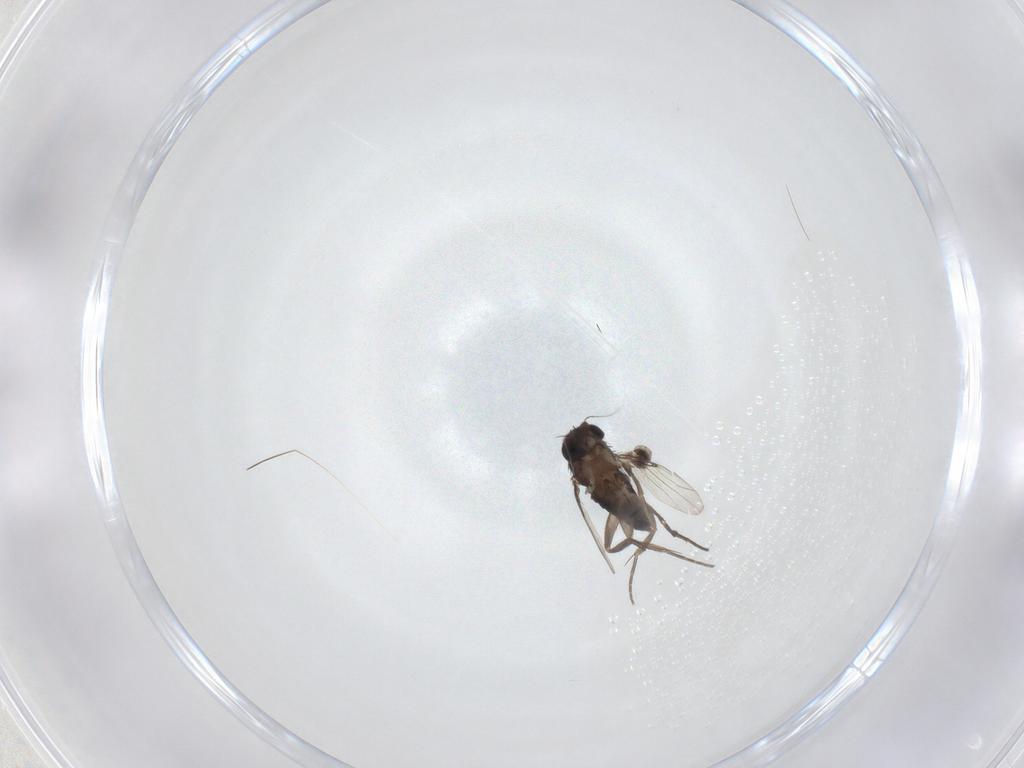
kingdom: Animalia
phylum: Arthropoda
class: Insecta
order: Diptera
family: Phoridae
